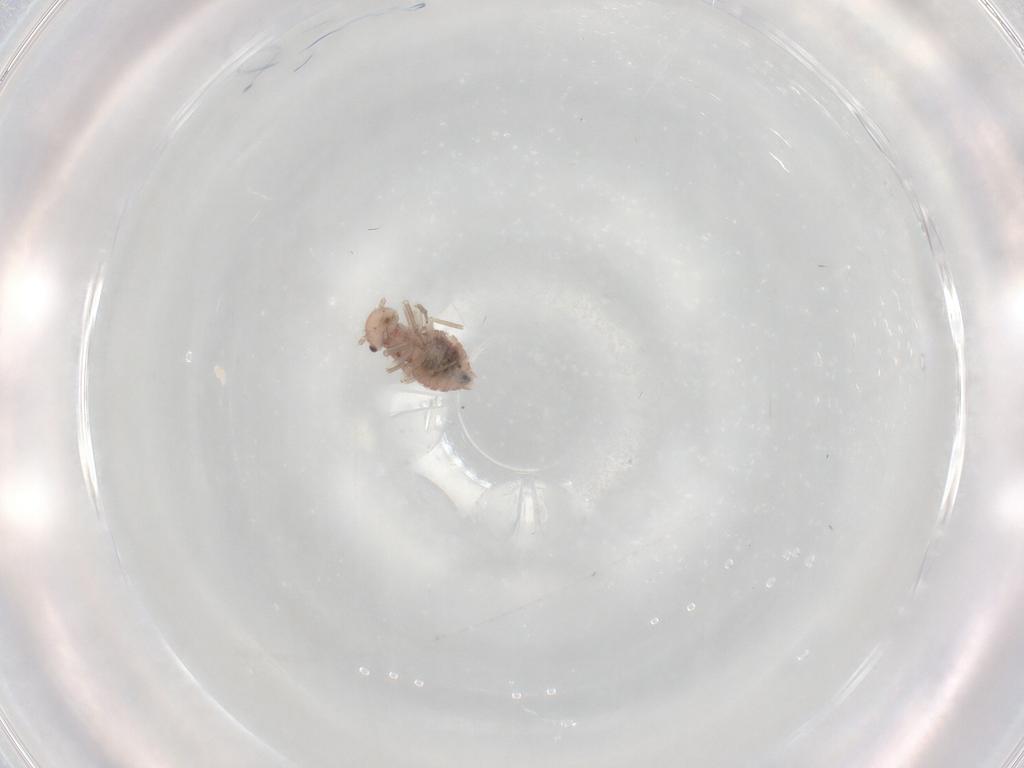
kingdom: Animalia
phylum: Arthropoda
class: Insecta
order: Psocodea
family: Ectopsocidae
